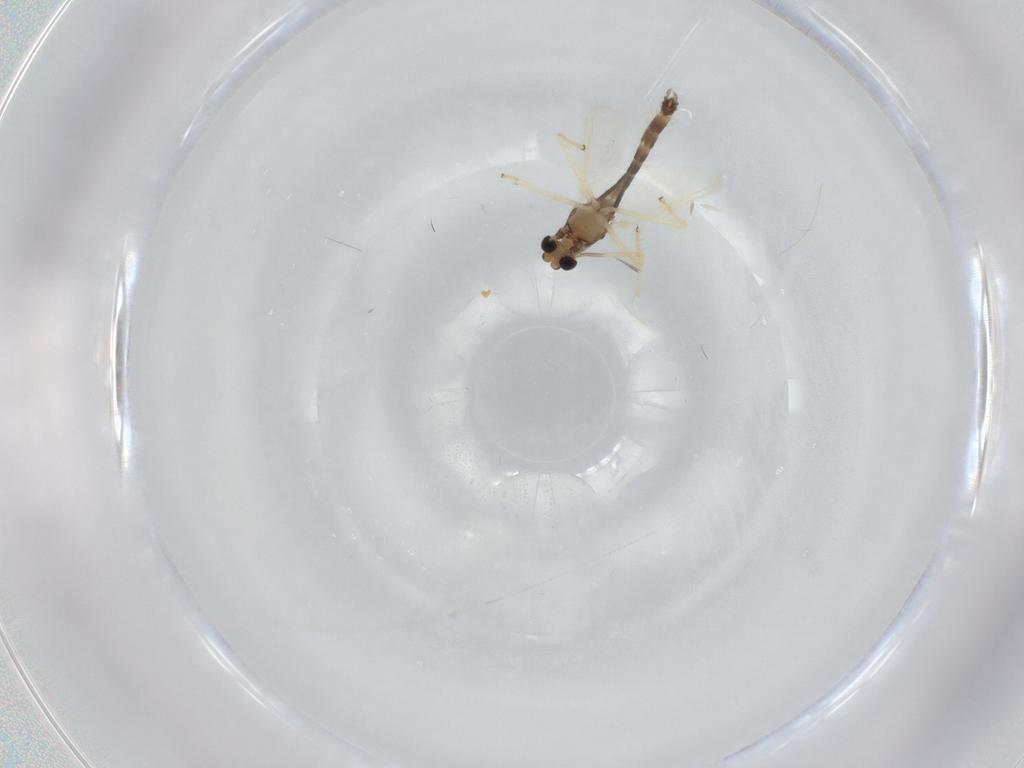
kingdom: Animalia
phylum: Arthropoda
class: Insecta
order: Diptera
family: Chironomidae
